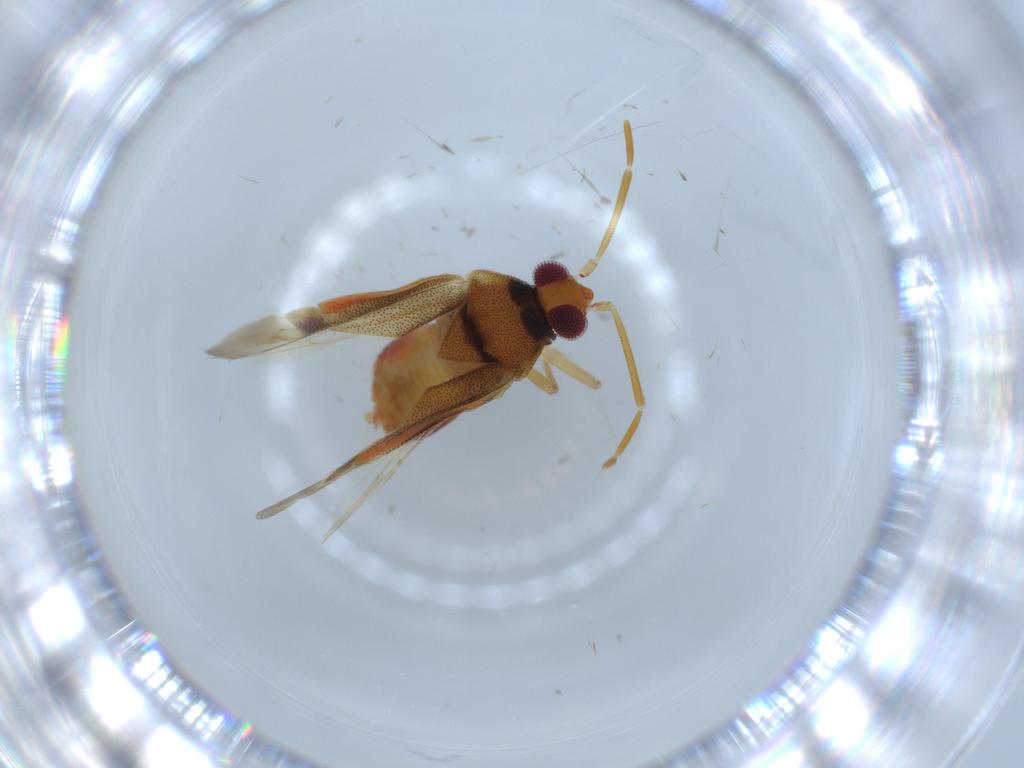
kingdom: Animalia
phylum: Arthropoda
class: Insecta
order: Hemiptera
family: Miridae
